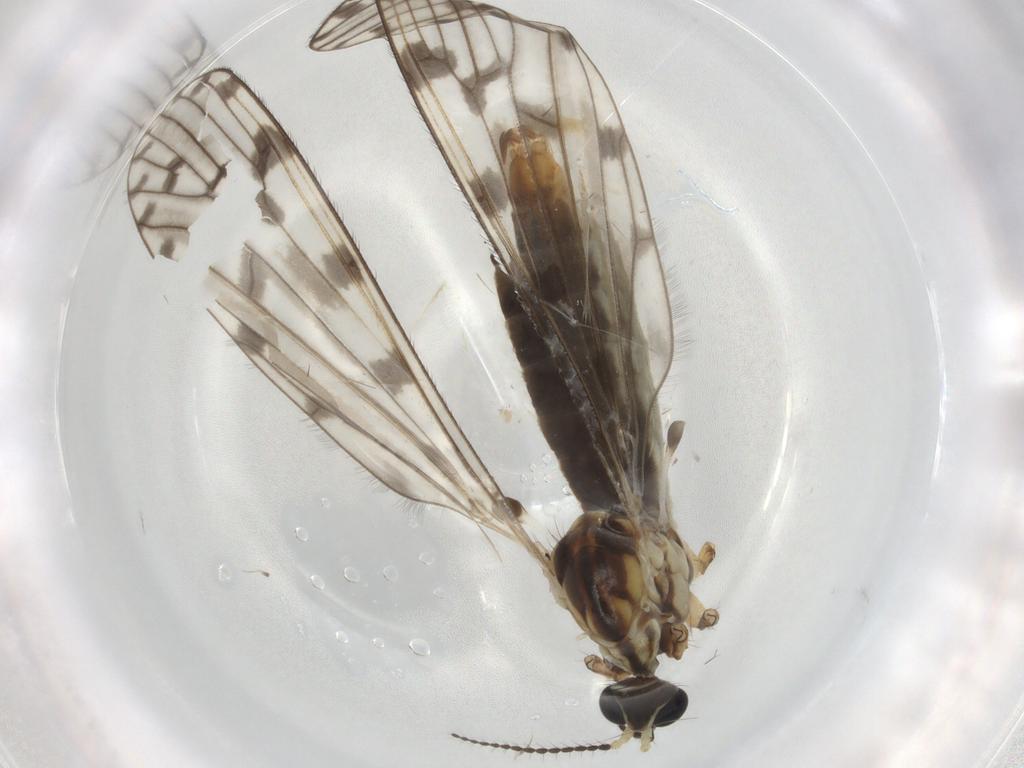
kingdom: Animalia
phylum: Arthropoda
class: Insecta
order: Diptera
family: Limoniidae
